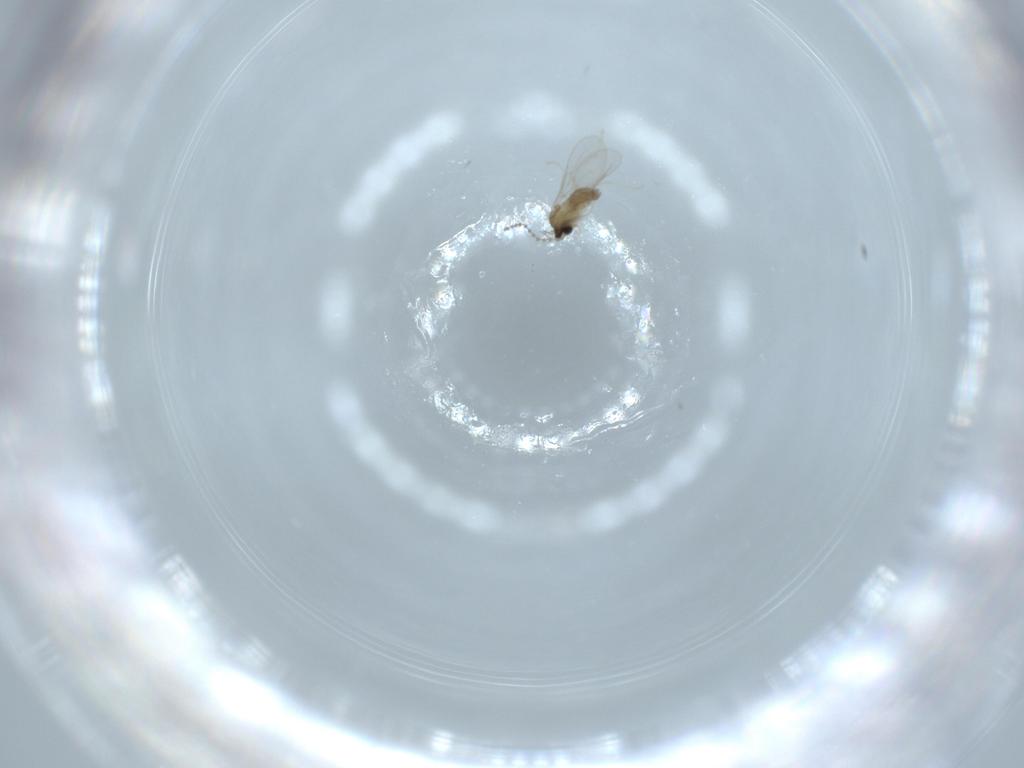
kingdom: Animalia
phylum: Arthropoda
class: Insecta
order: Diptera
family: Cecidomyiidae
